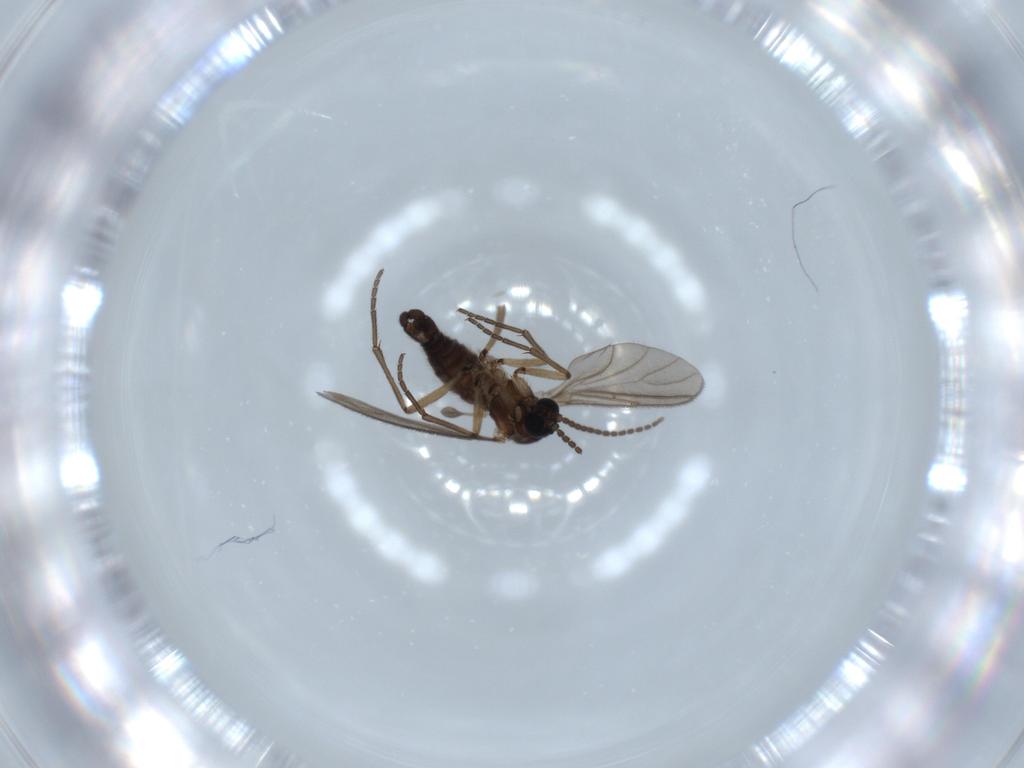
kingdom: Animalia
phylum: Arthropoda
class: Insecta
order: Diptera
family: Sciaridae
